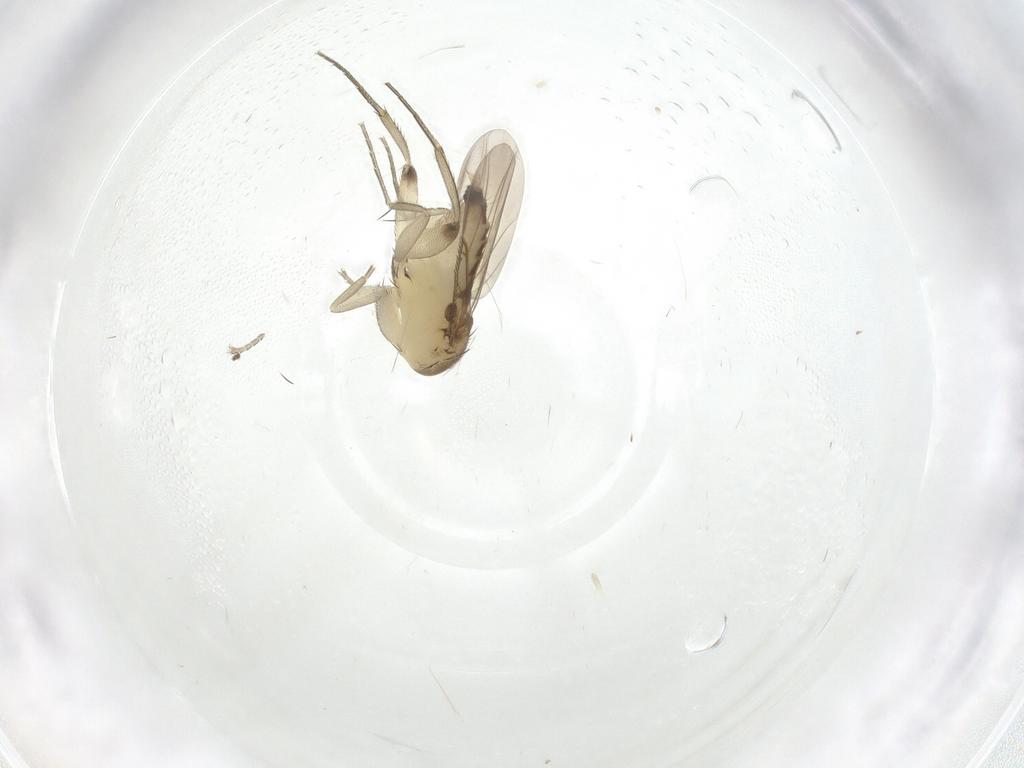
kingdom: Animalia
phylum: Arthropoda
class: Insecta
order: Diptera
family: Phoridae
